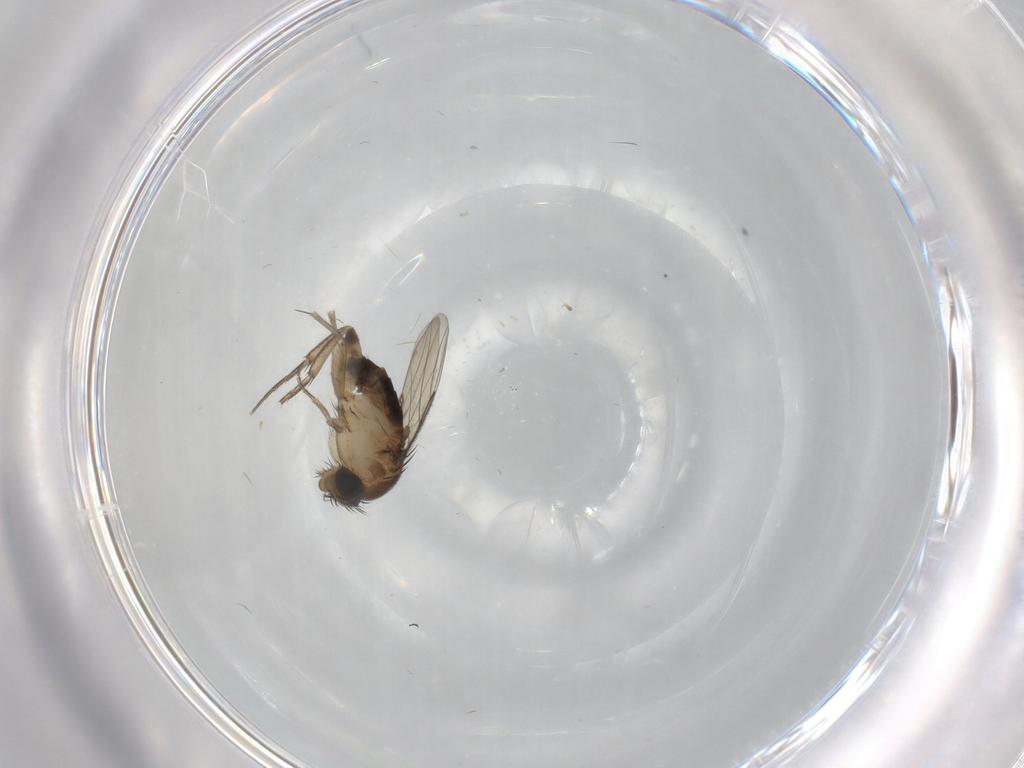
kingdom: Animalia
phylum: Arthropoda
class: Insecta
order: Diptera
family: Phoridae
